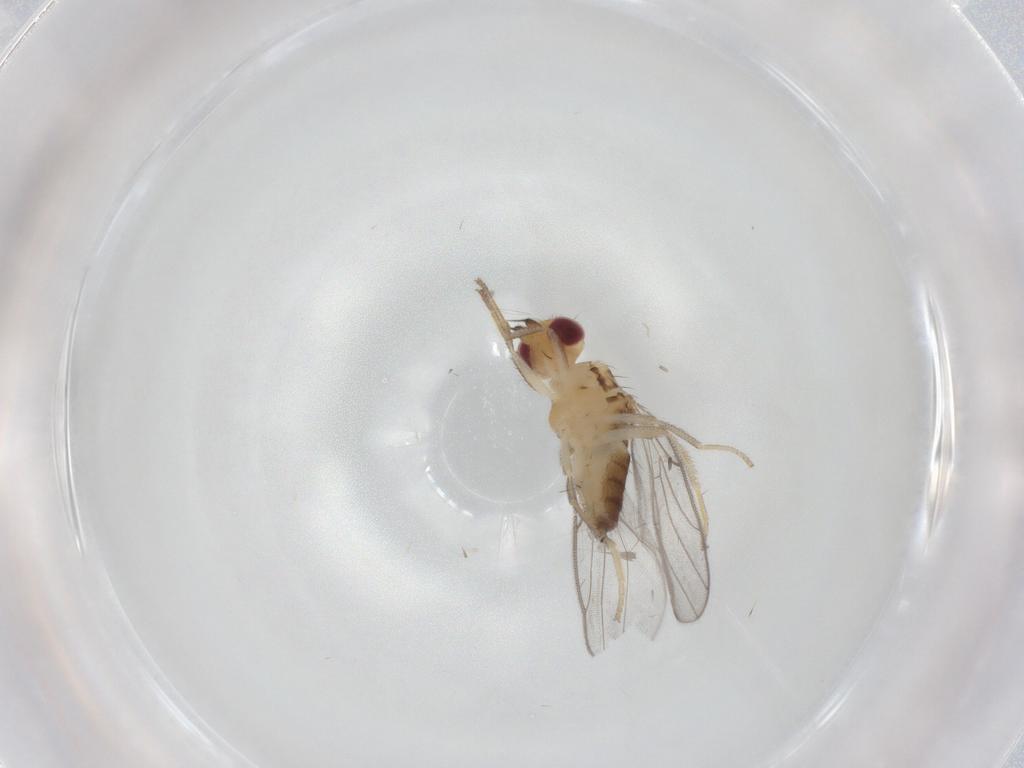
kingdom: Animalia
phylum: Arthropoda
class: Insecta
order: Diptera
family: Chloropidae
